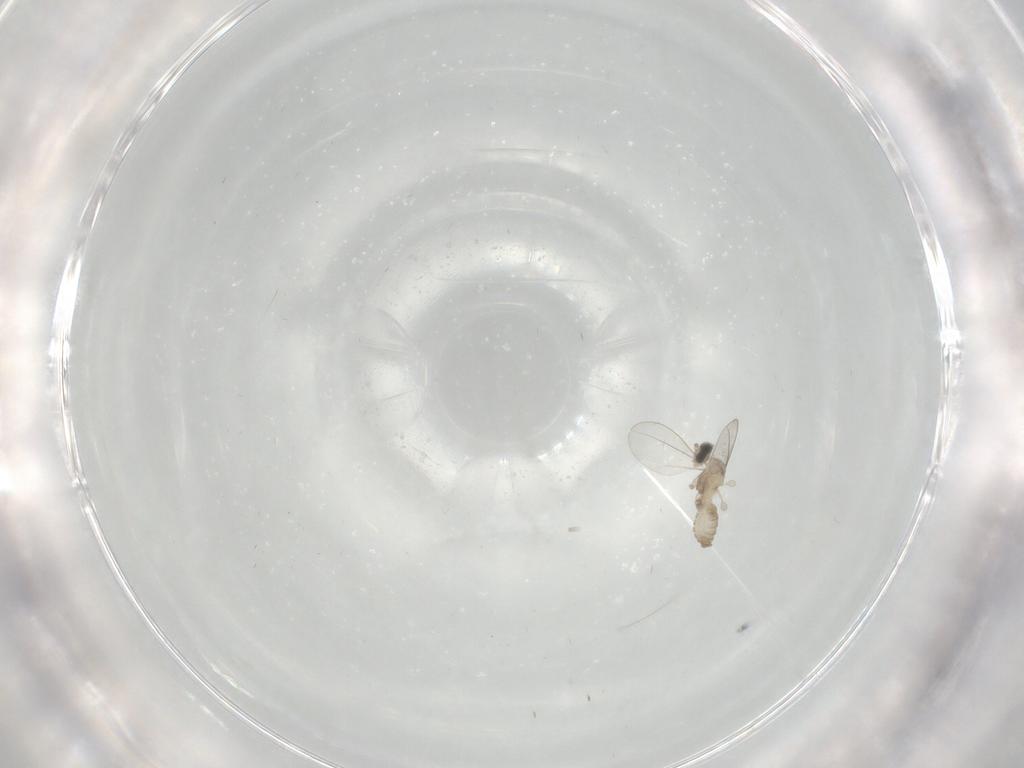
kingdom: Animalia
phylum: Arthropoda
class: Insecta
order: Diptera
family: Cecidomyiidae
